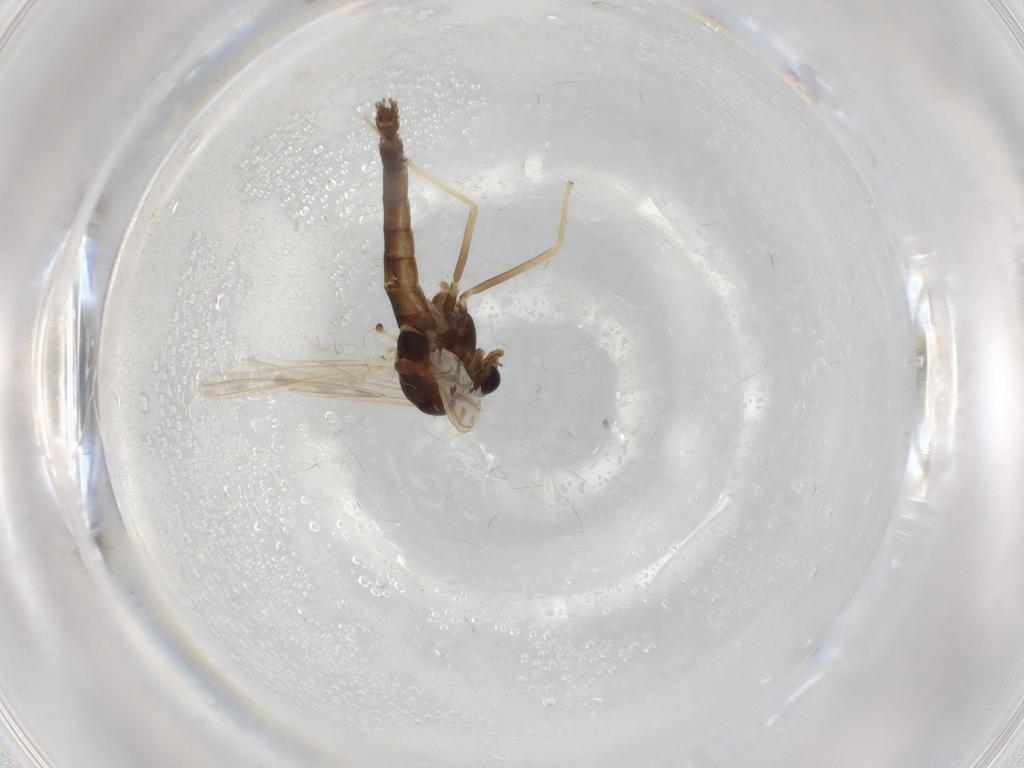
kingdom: Animalia
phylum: Arthropoda
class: Insecta
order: Diptera
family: Chironomidae
